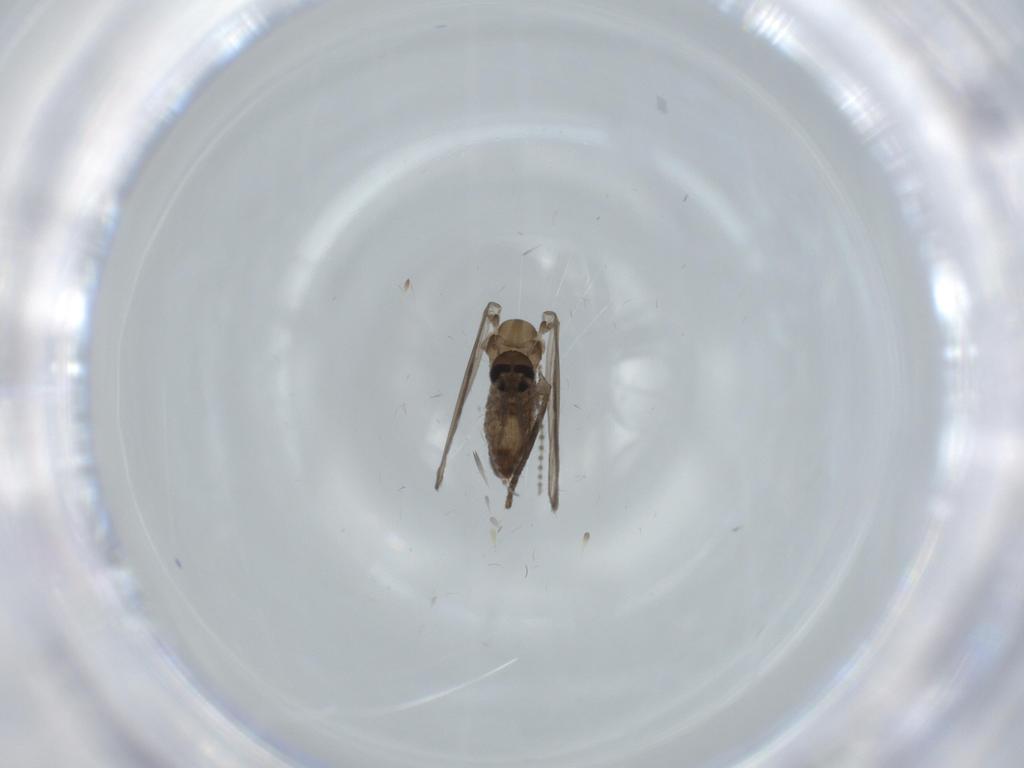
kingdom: Animalia
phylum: Arthropoda
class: Insecta
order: Diptera
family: Psychodidae
